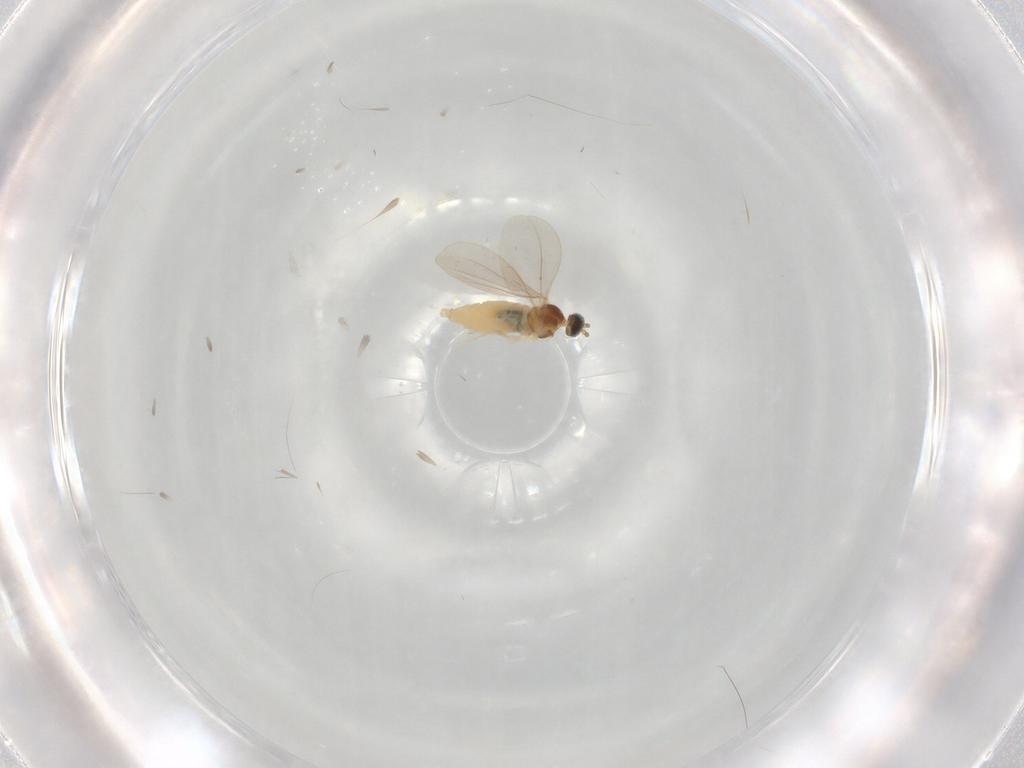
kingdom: Animalia
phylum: Arthropoda
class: Insecta
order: Diptera
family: Cecidomyiidae
